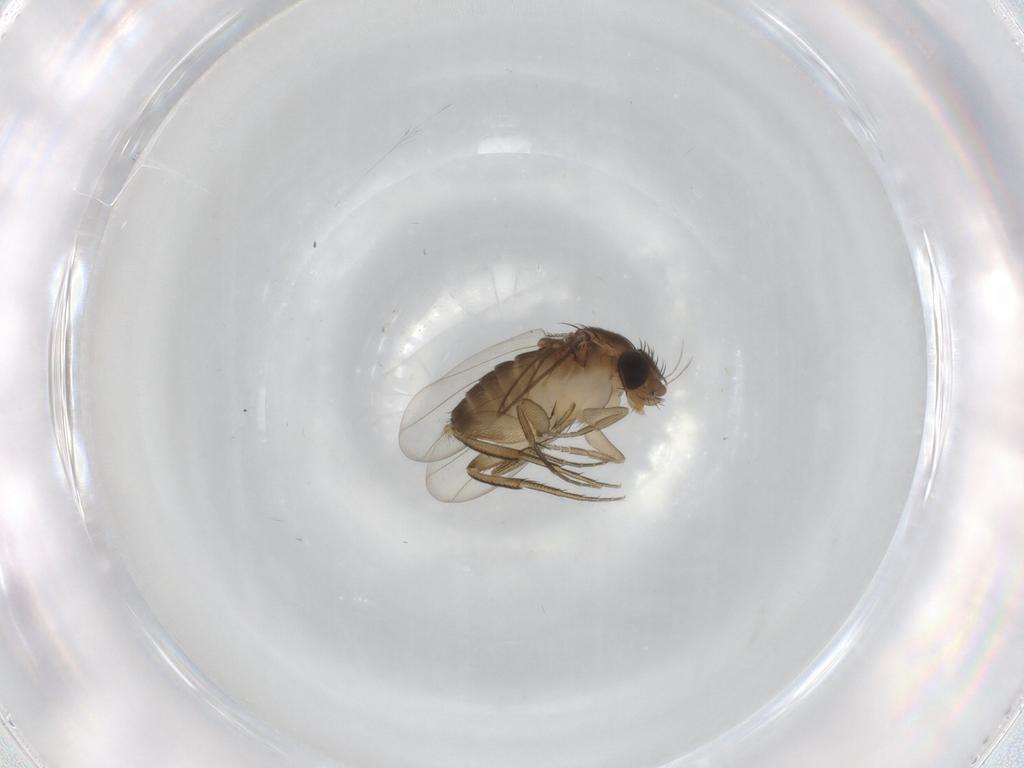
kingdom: Animalia
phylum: Arthropoda
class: Insecta
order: Diptera
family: Phoridae
